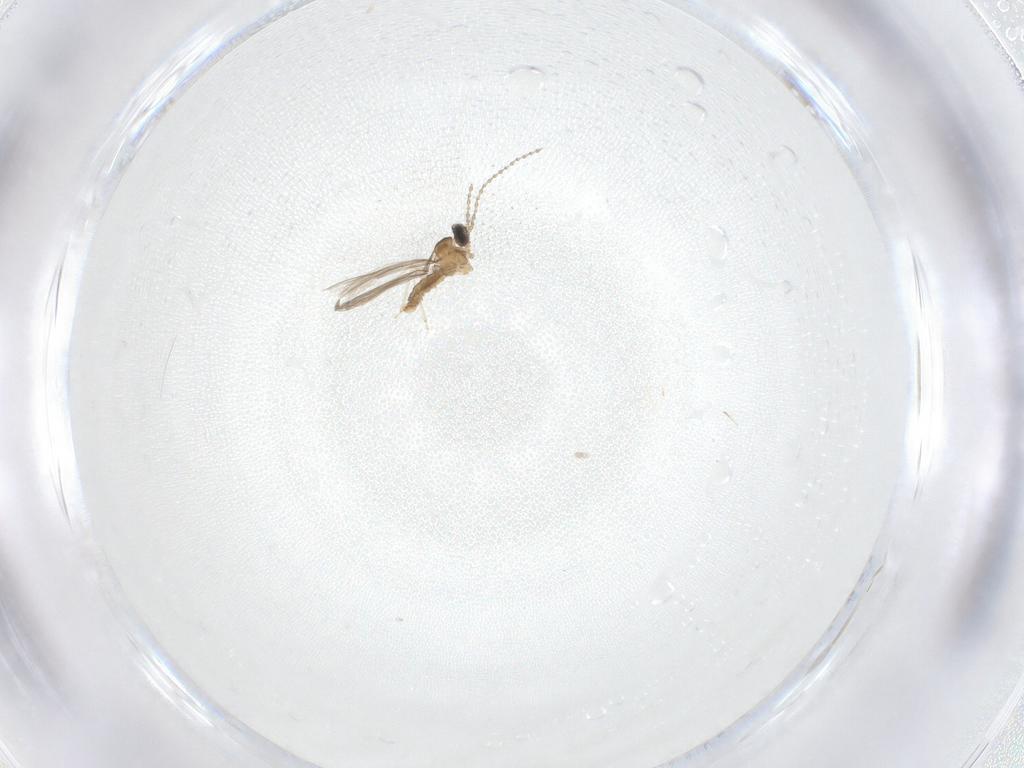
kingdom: Animalia
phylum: Arthropoda
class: Insecta
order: Diptera
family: Cecidomyiidae
